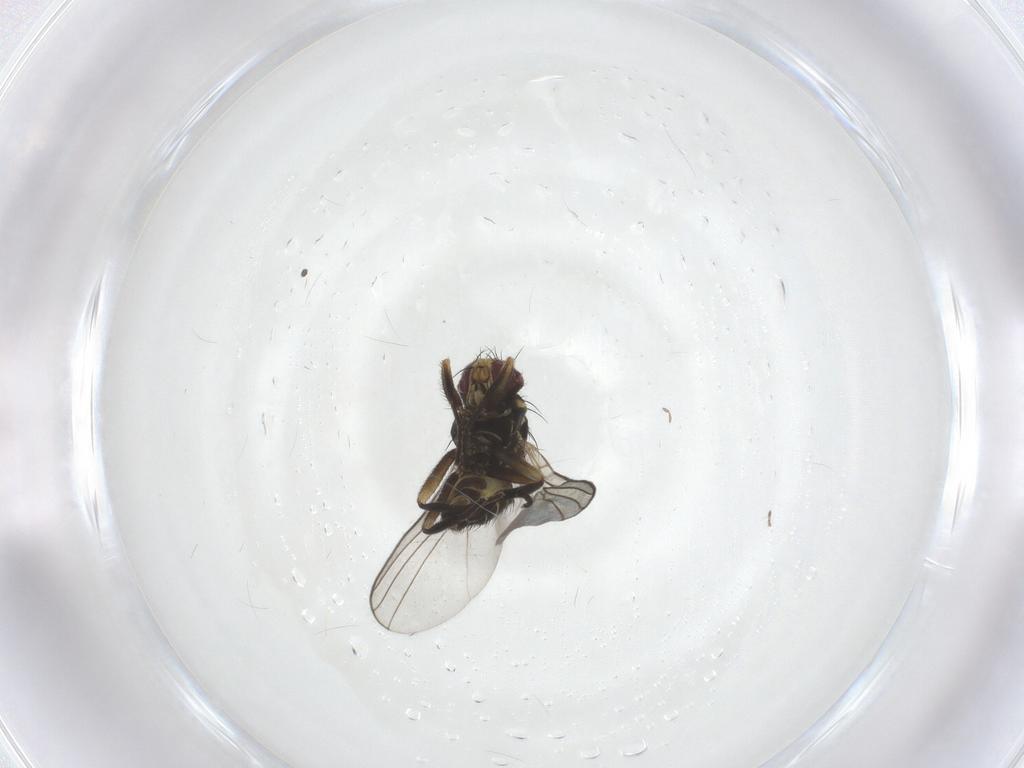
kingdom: Animalia
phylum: Arthropoda
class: Insecta
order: Diptera
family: Agromyzidae
